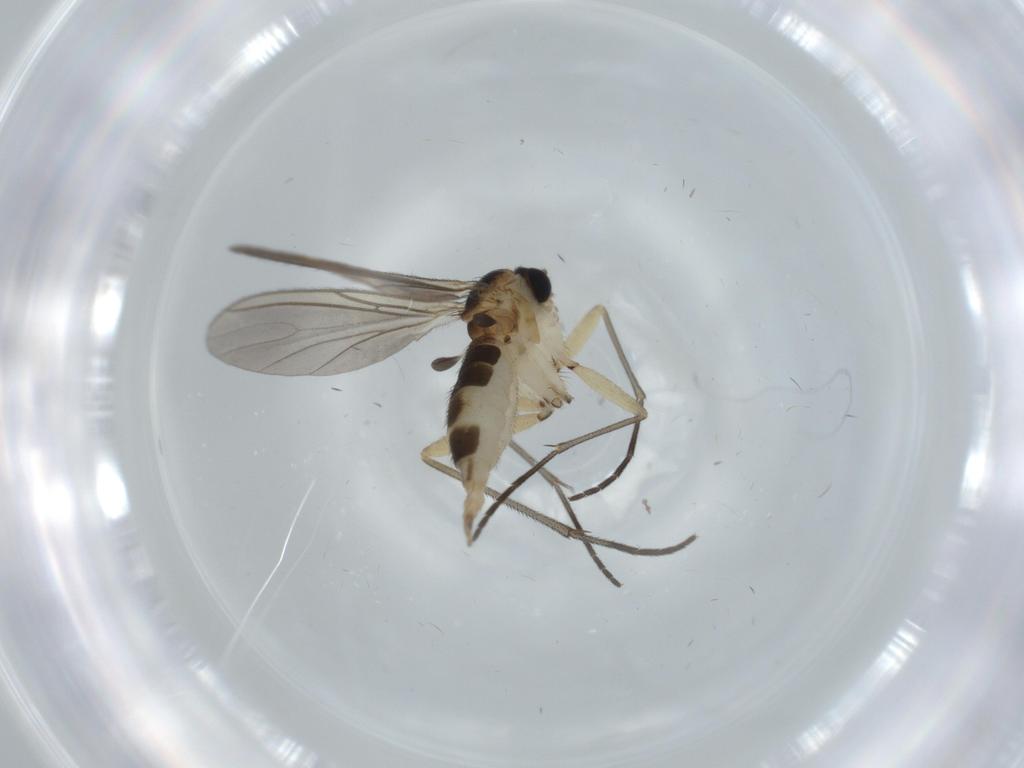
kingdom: Animalia
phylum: Arthropoda
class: Insecta
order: Diptera
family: Sciaridae
